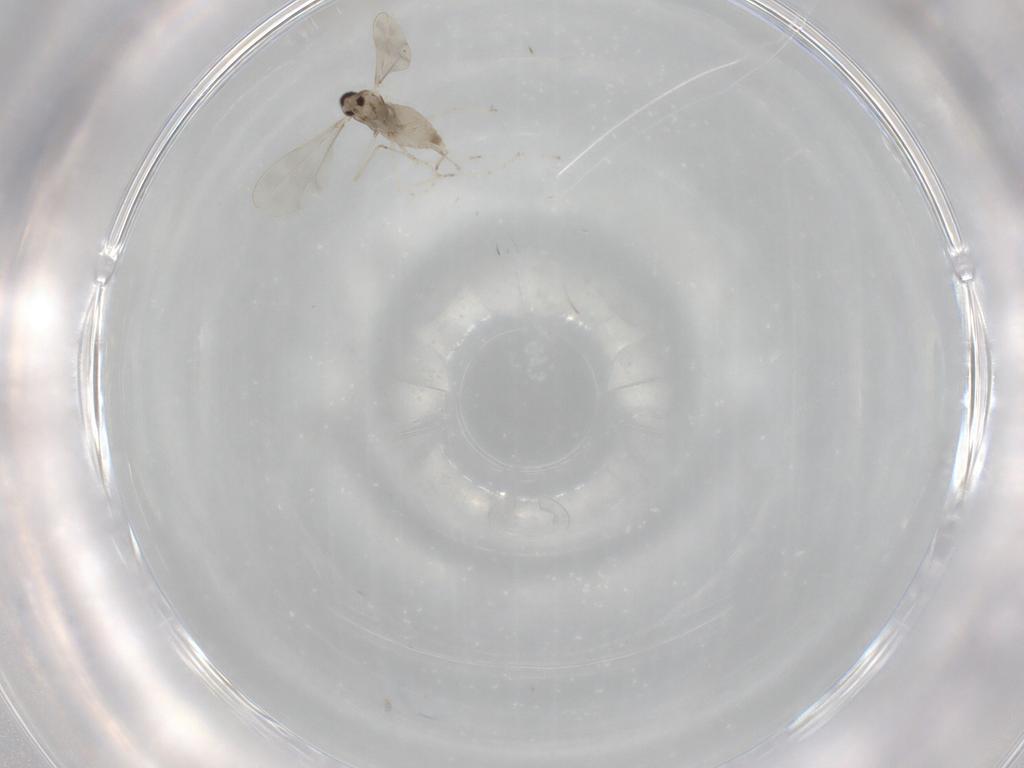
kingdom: Animalia
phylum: Arthropoda
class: Insecta
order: Diptera
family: Cecidomyiidae
